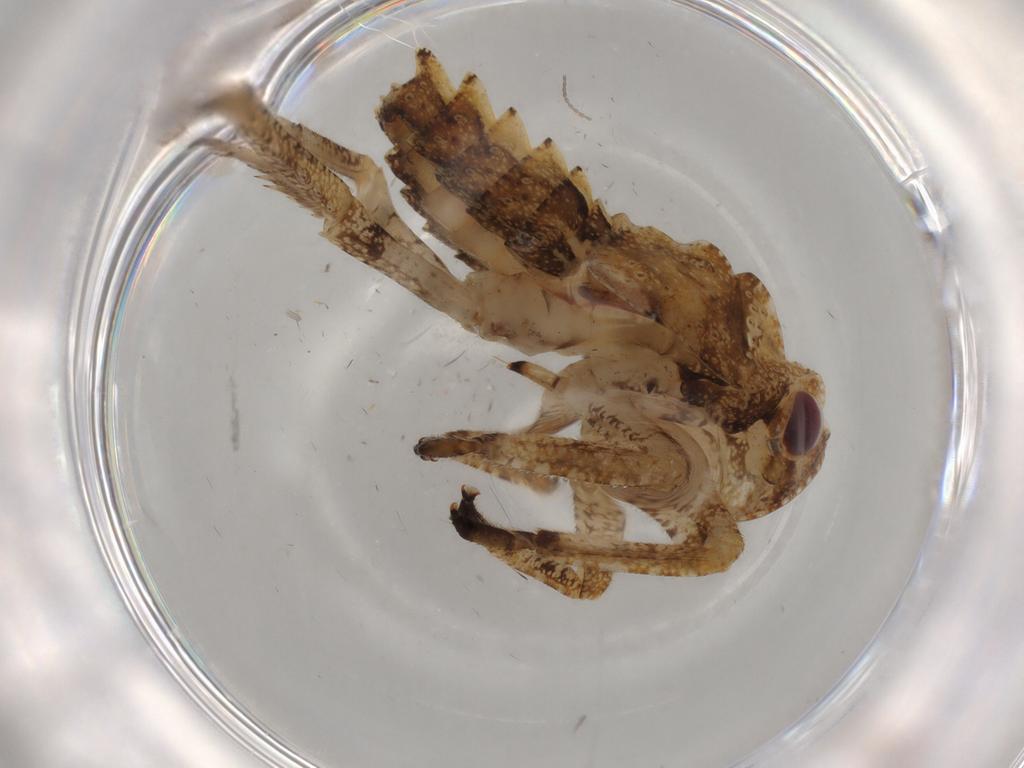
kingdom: Animalia
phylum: Arthropoda
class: Insecta
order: Hemiptera
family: Issidae
